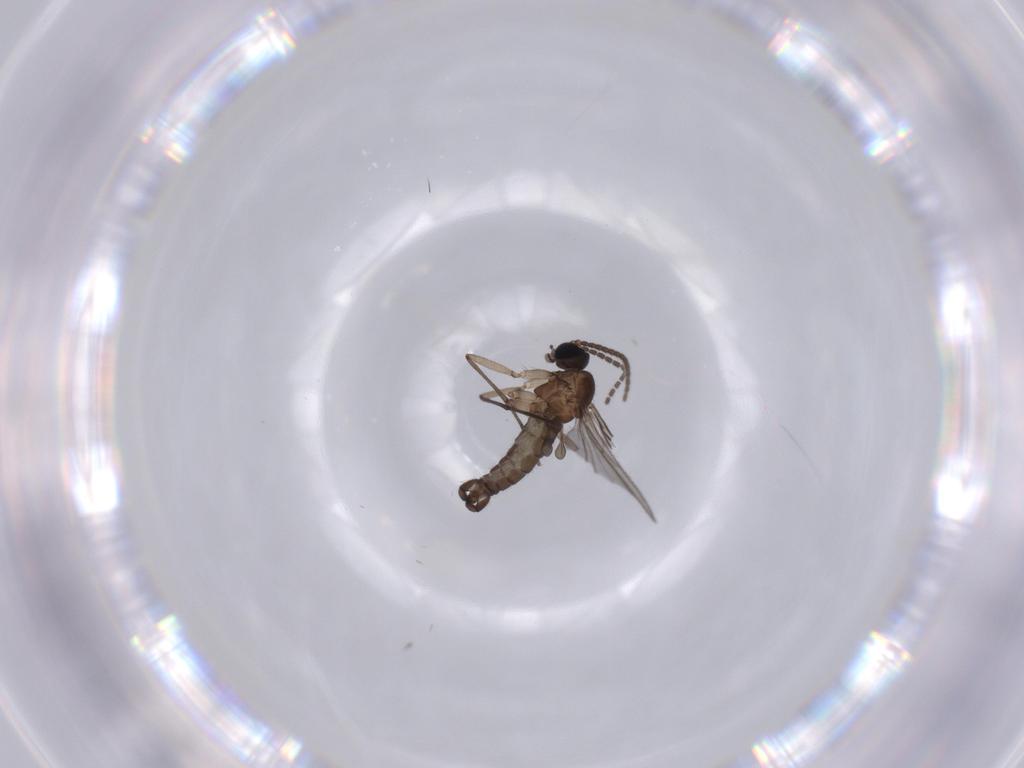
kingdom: Animalia
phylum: Arthropoda
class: Insecta
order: Diptera
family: Sciaridae
